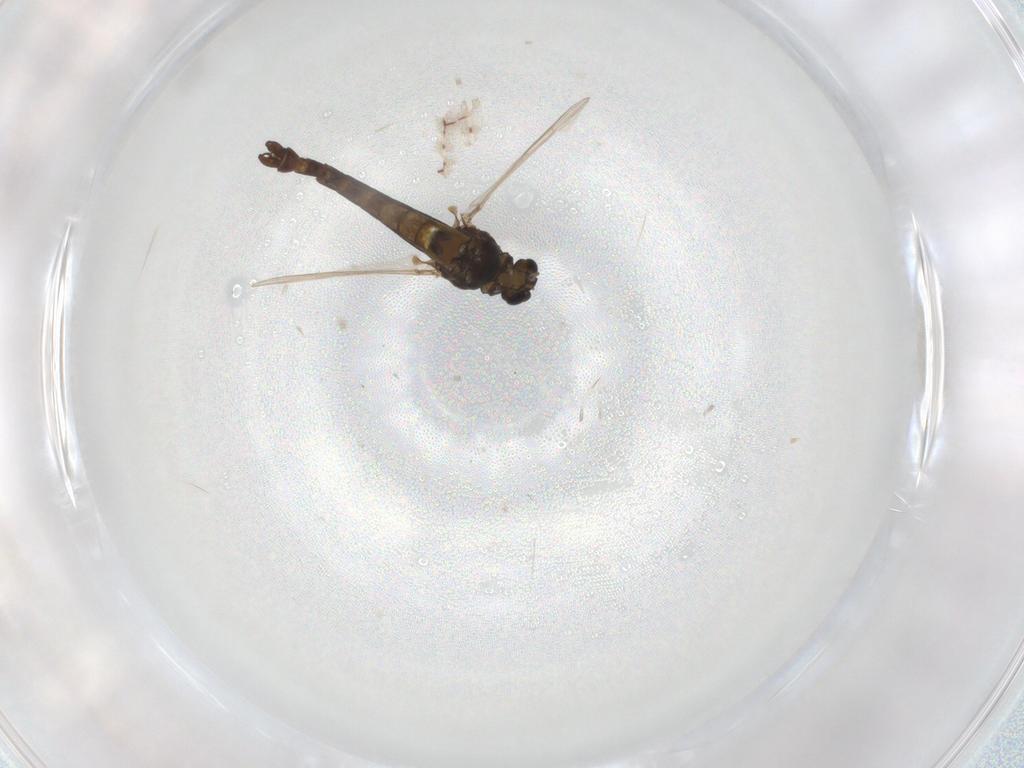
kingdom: Animalia
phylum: Arthropoda
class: Insecta
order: Diptera
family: Chironomidae
